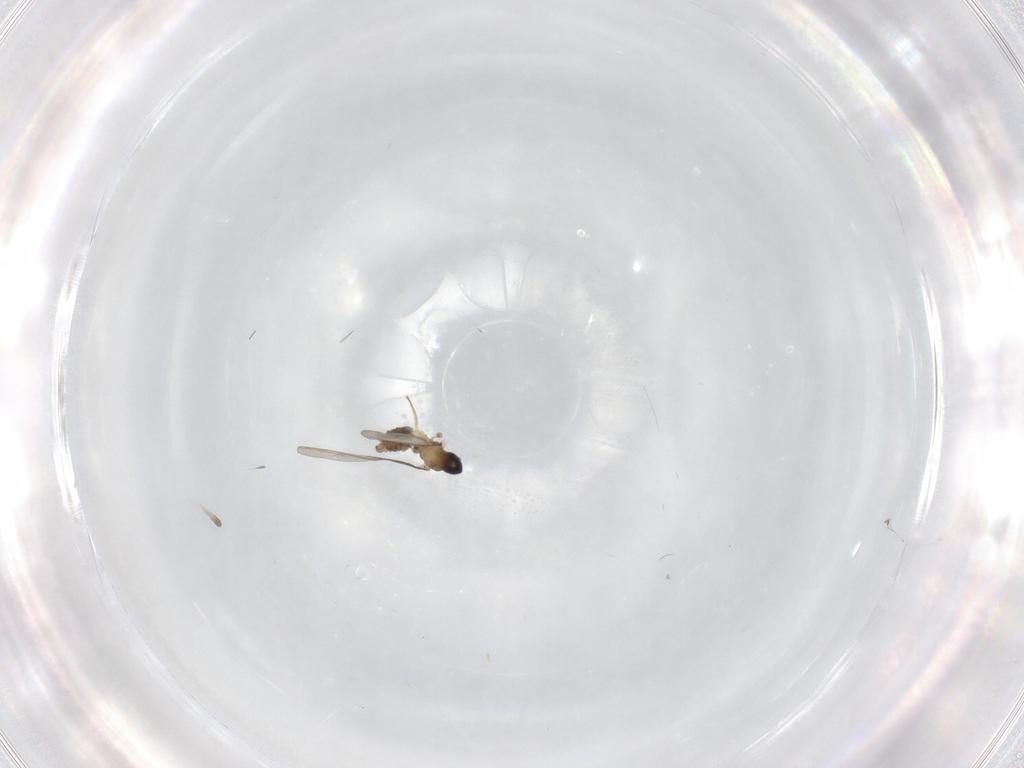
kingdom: Animalia
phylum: Arthropoda
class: Insecta
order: Diptera
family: Cecidomyiidae
